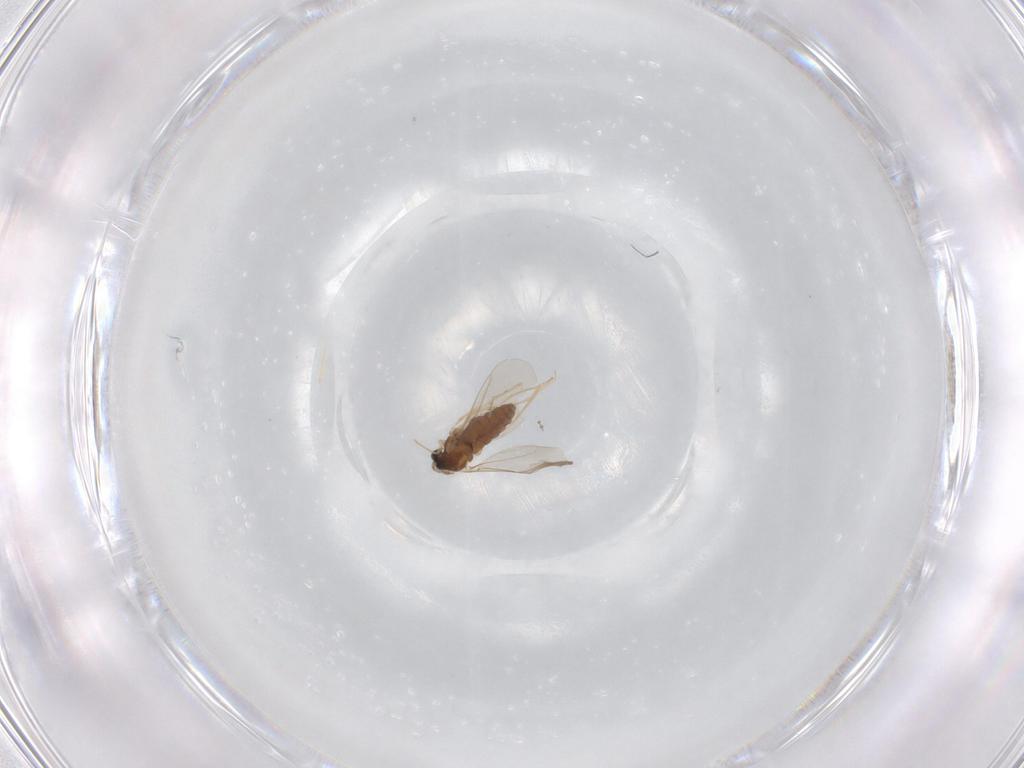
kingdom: Animalia
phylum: Arthropoda
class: Insecta
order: Diptera
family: Cecidomyiidae
